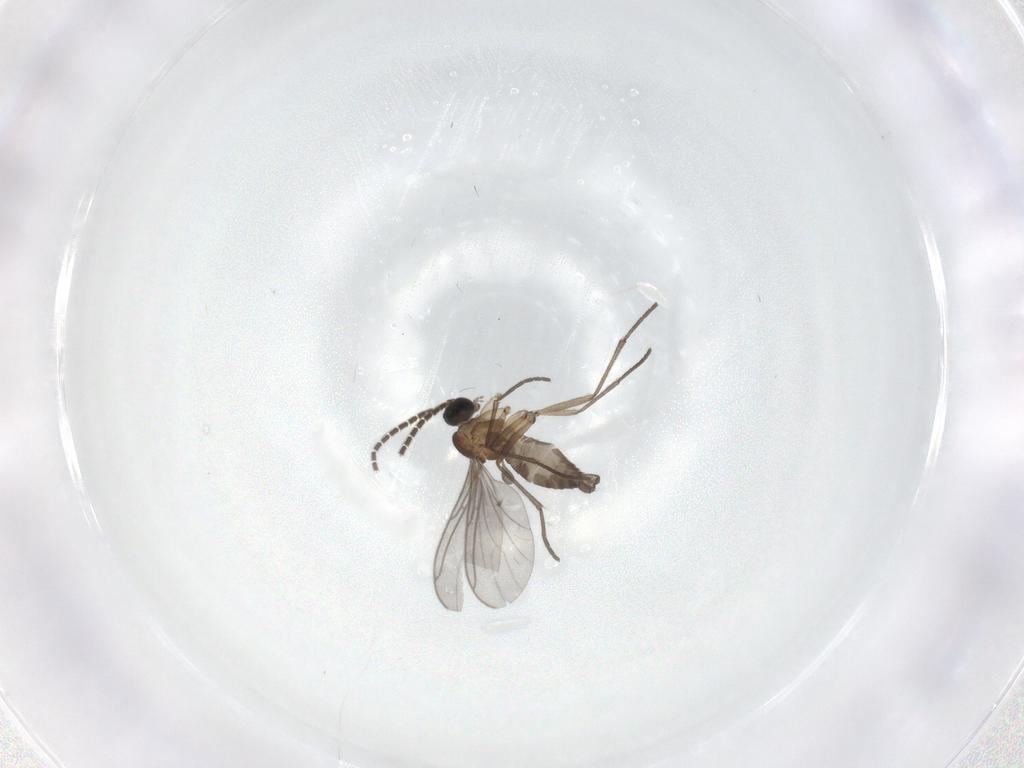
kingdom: Animalia
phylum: Arthropoda
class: Insecta
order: Diptera
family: Sciaridae
